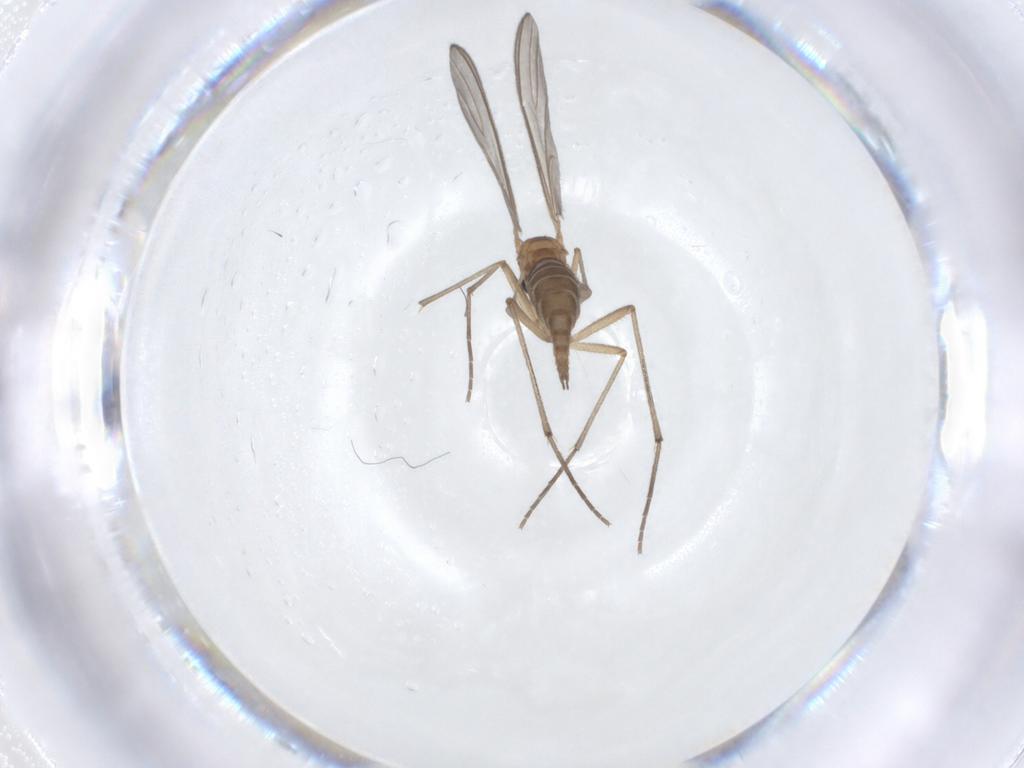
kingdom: Animalia
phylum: Arthropoda
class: Insecta
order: Diptera
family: Sciaridae
